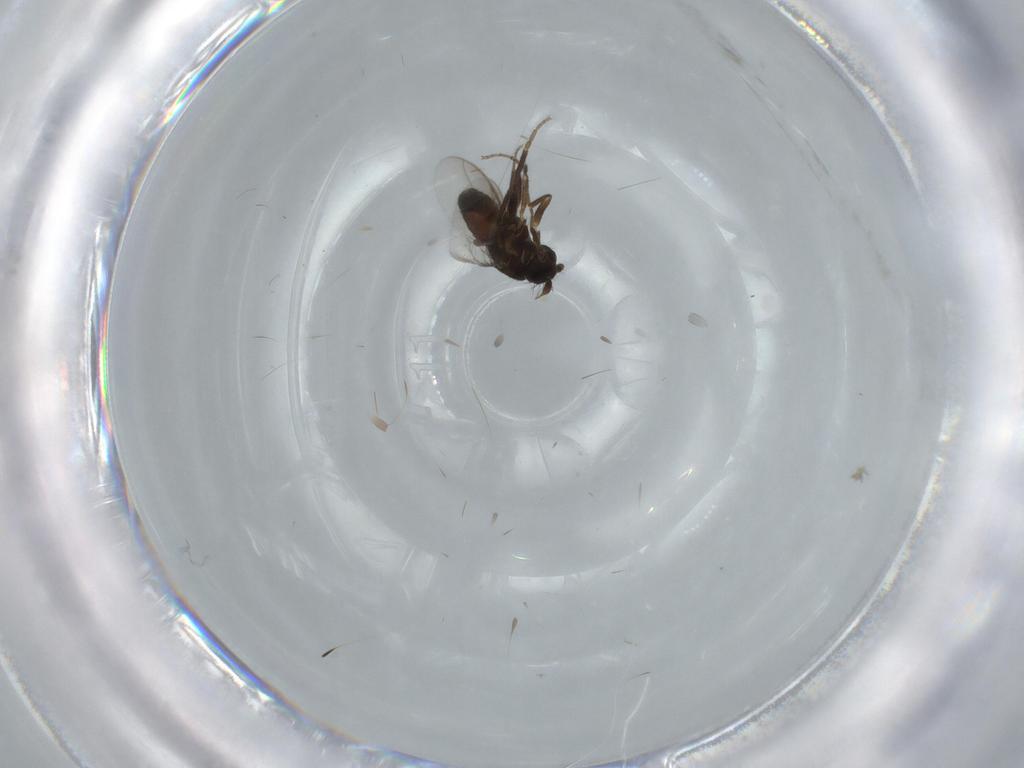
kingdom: Animalia
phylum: Arthropoda
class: Insecta
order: Diptera
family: Sphaeroceridae
